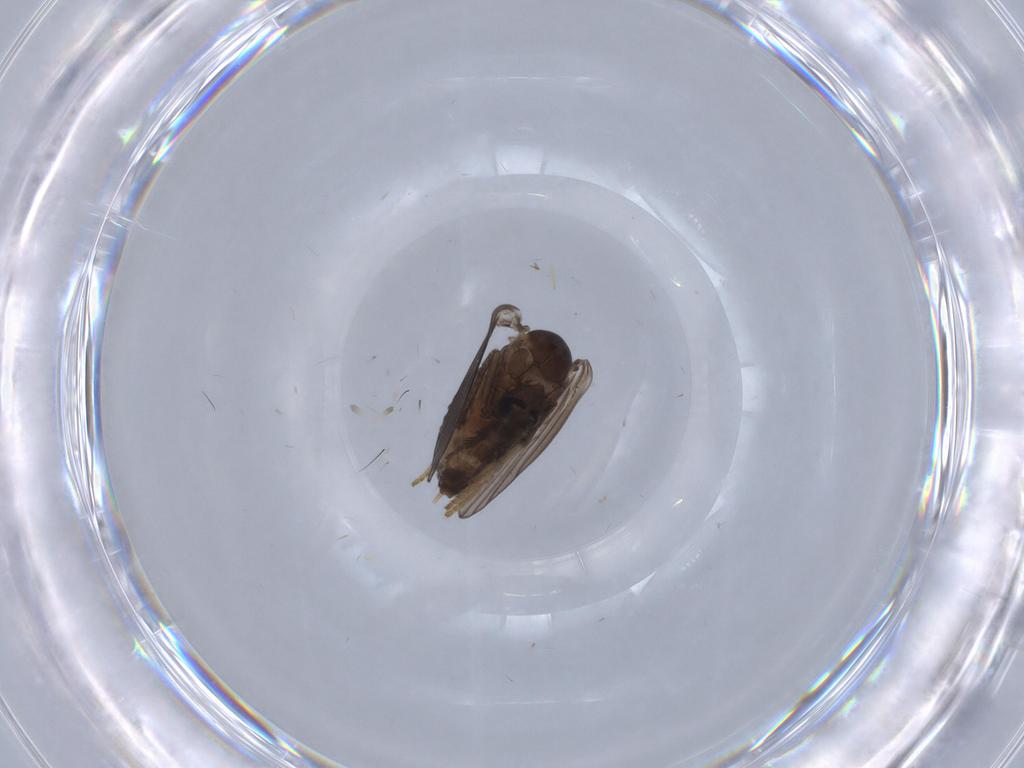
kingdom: Animalia
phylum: Arthropoda
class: Insecta
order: Diptera
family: Psychodidae
